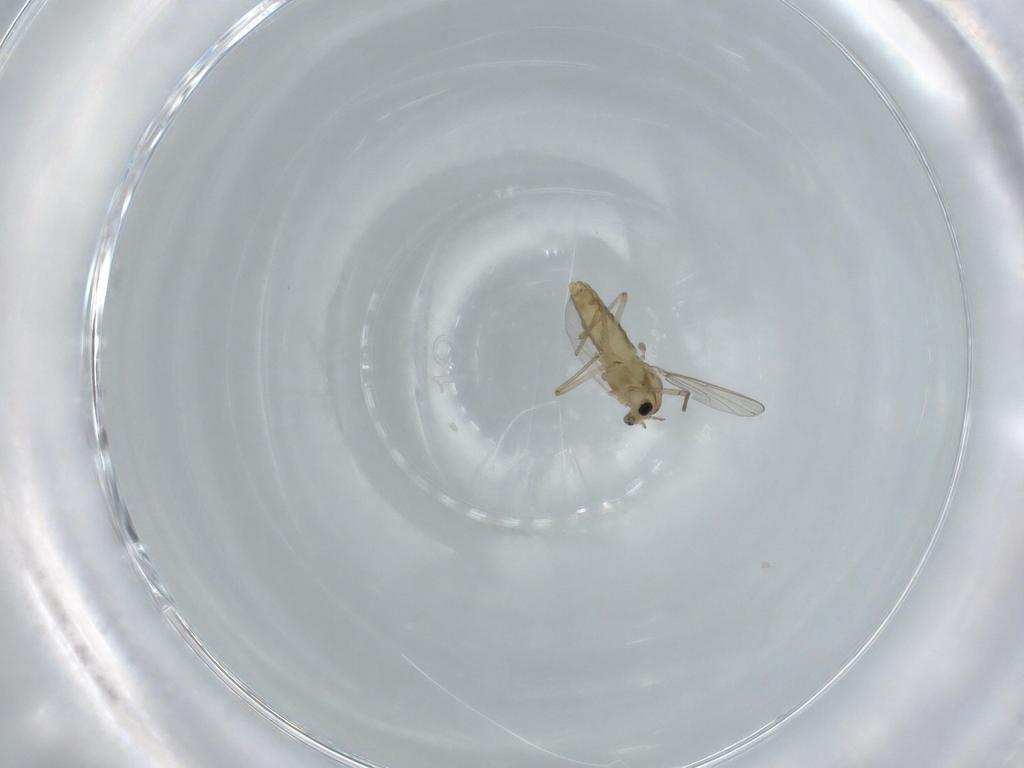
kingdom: Animalia
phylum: Arthropoda
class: Insecta
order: Diptera
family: Chironomidae
